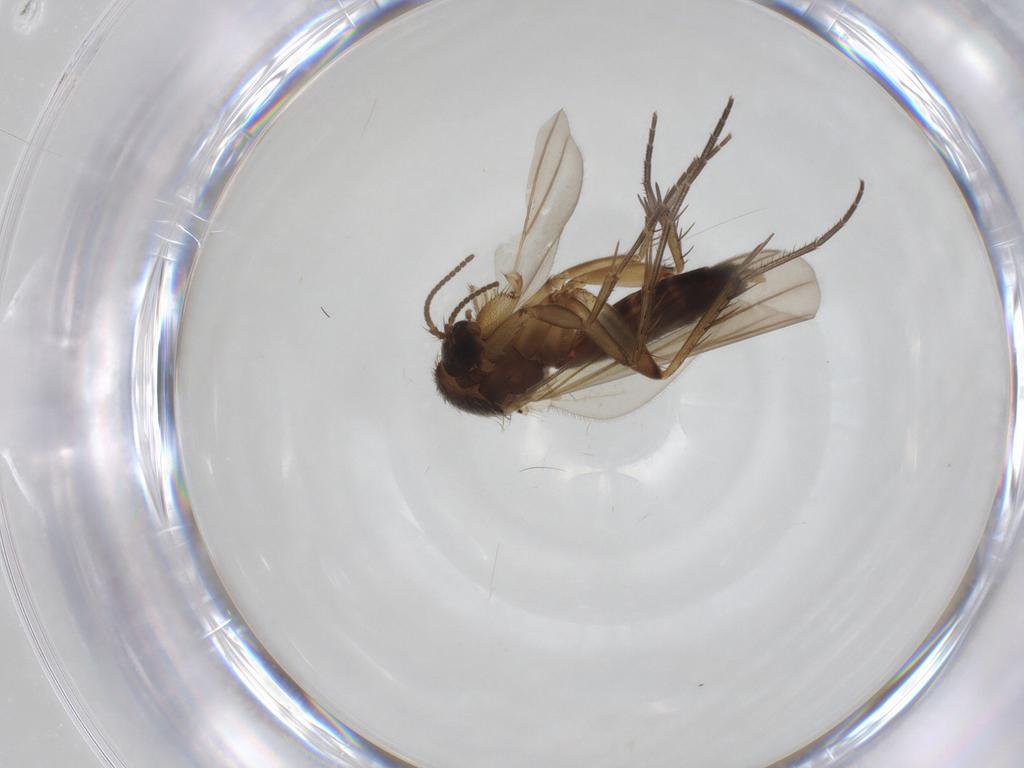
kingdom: Animalia
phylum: Arthropoda
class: Insecta
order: Diptera
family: Cecidomyiidae
